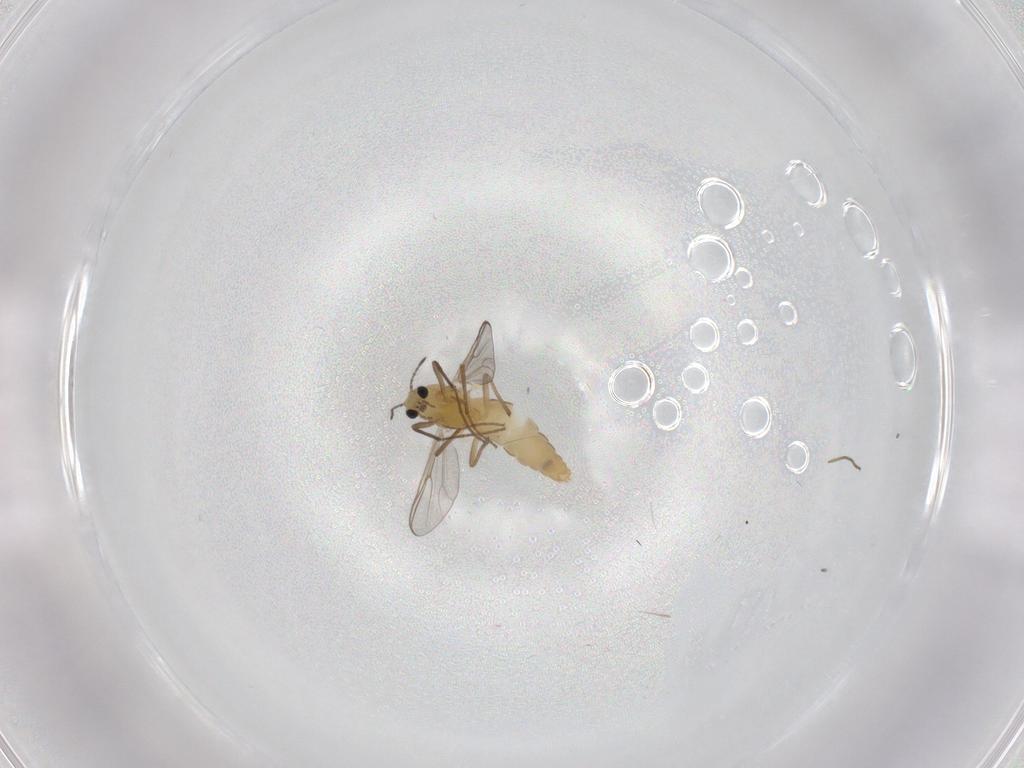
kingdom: Animalia
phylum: Arthropoda
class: Insecta
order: Diptera
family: Chironomidae
